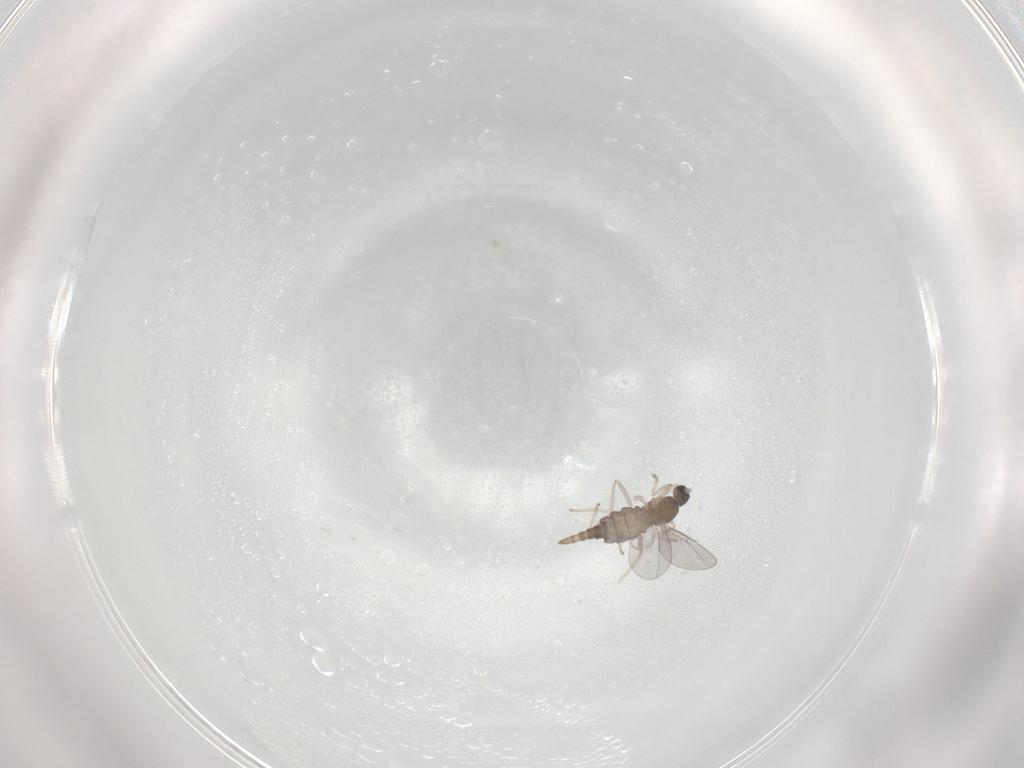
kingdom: Animalia
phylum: Arthropoda
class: Insecta
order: Diptera
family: Cecidomyiidae
